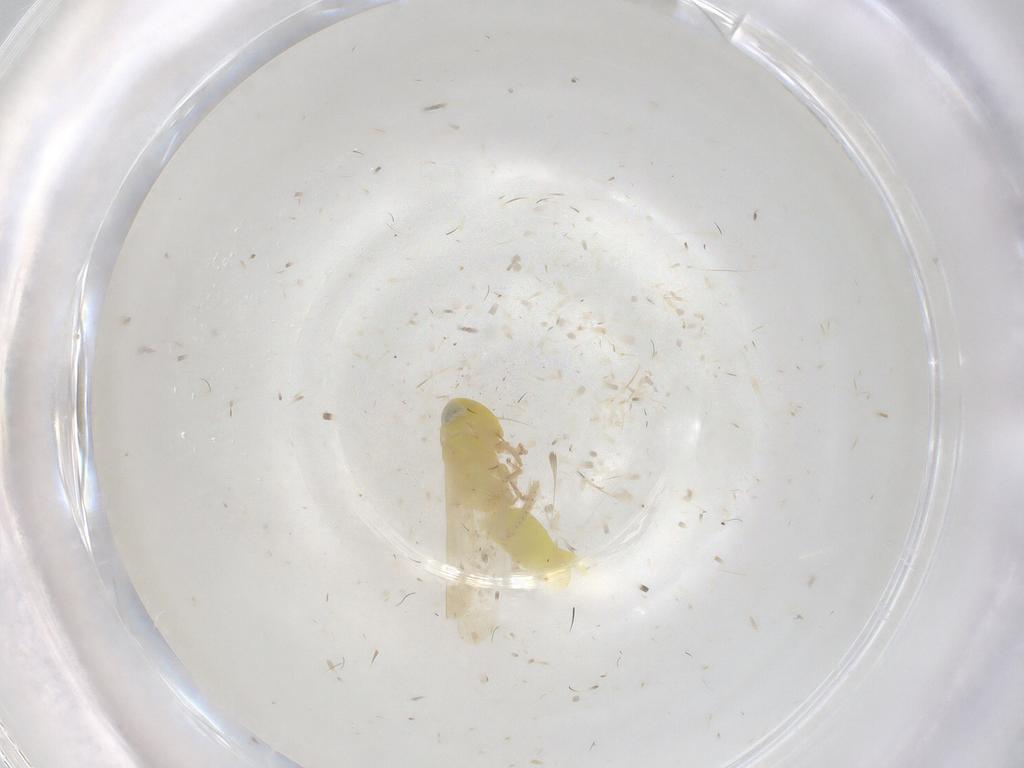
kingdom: Animalia
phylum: Arthropoda
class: Insecta
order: Hemiptera
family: Cicadellidae
